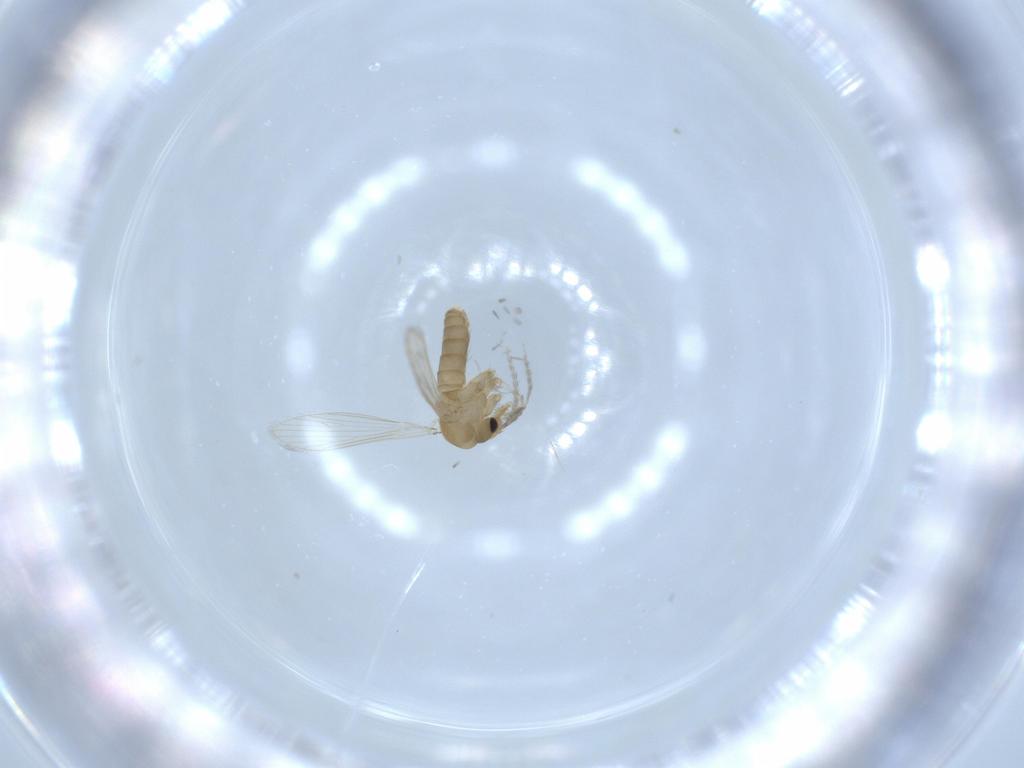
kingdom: Animalia
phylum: Arthropoda
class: Insecta
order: Diptera
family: Psychodidae
